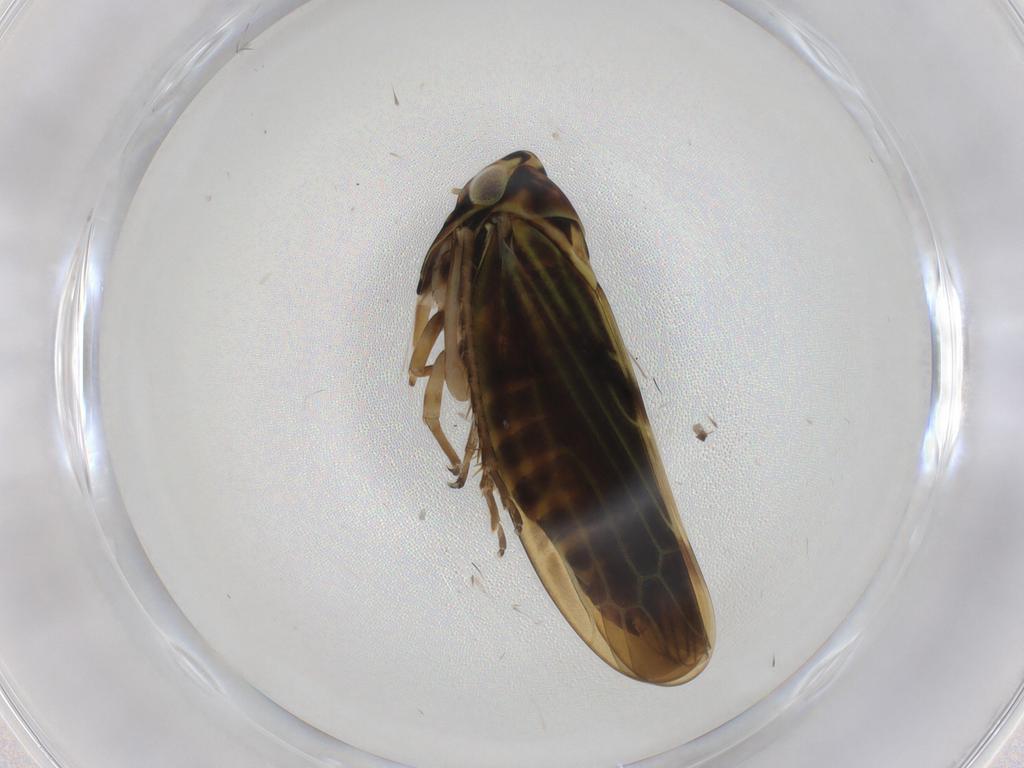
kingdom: Animalia
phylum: Arthropoda
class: Insecta
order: Hemiptera
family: Cicadellidae
